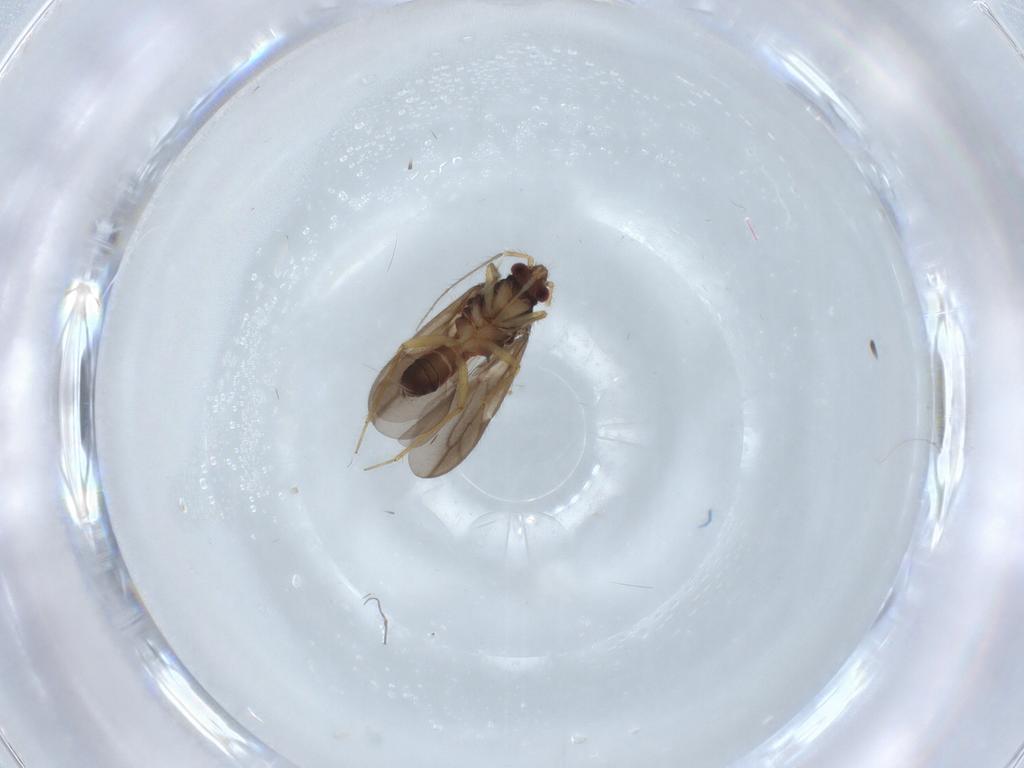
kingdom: Animalia
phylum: Arthropoda
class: Insecta
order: Hemiptera
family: Ceratocombidae
